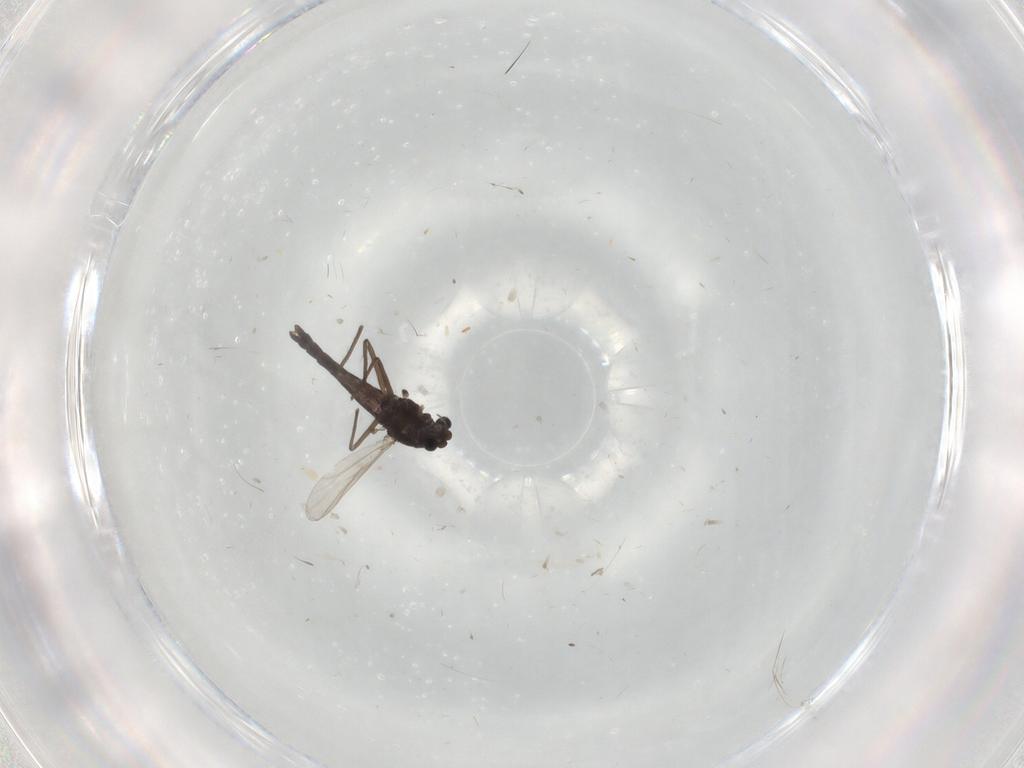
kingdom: Animalia
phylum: Arthropoda
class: Insecta
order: Diptera
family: Chironomidae
